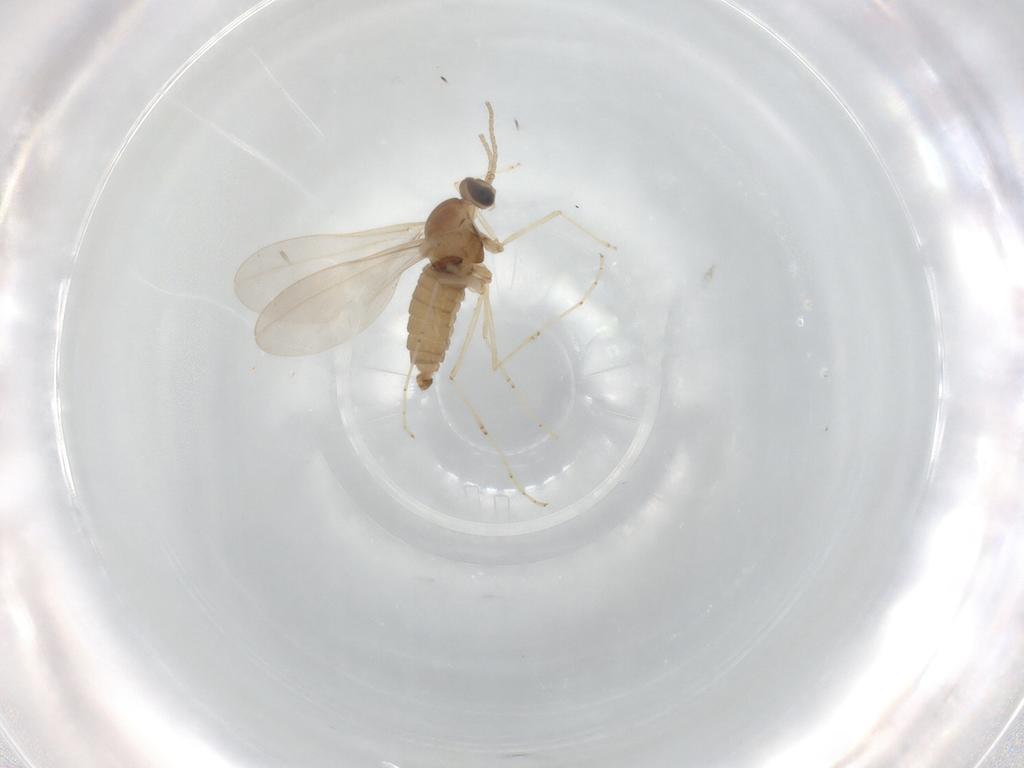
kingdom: Animalia
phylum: Arthropoda
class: Insecta
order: Diptera
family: Cecidomyiidae
